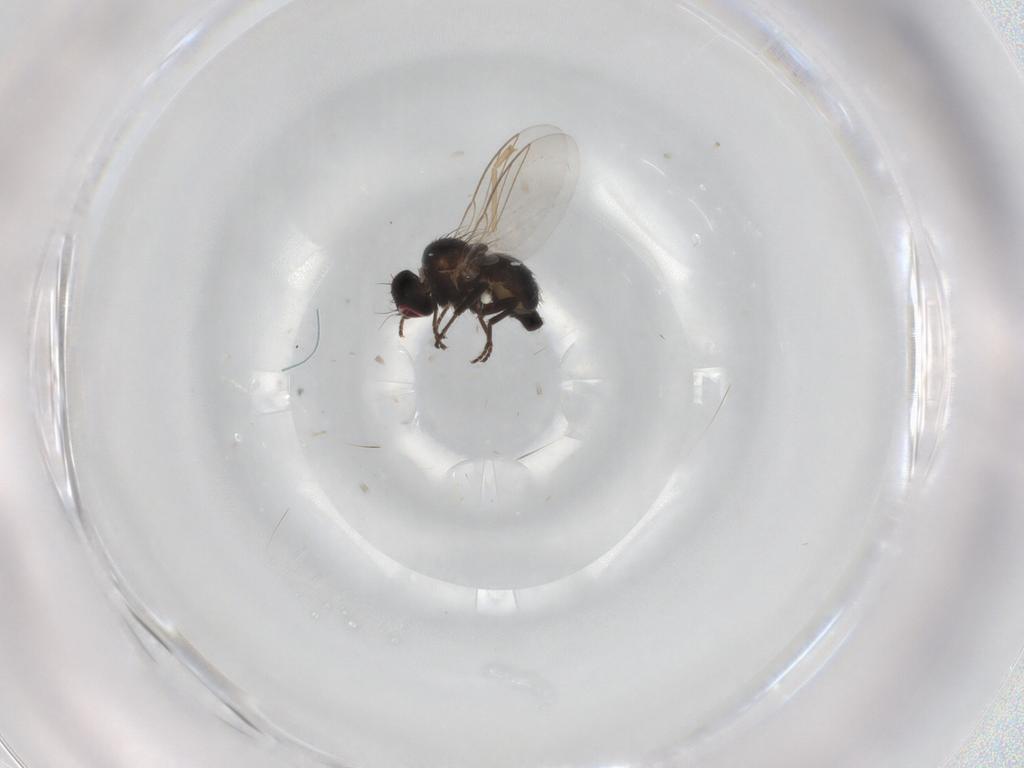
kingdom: Animalia
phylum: Arthropoda
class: Insecta
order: Diptera
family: Agromyzidae
